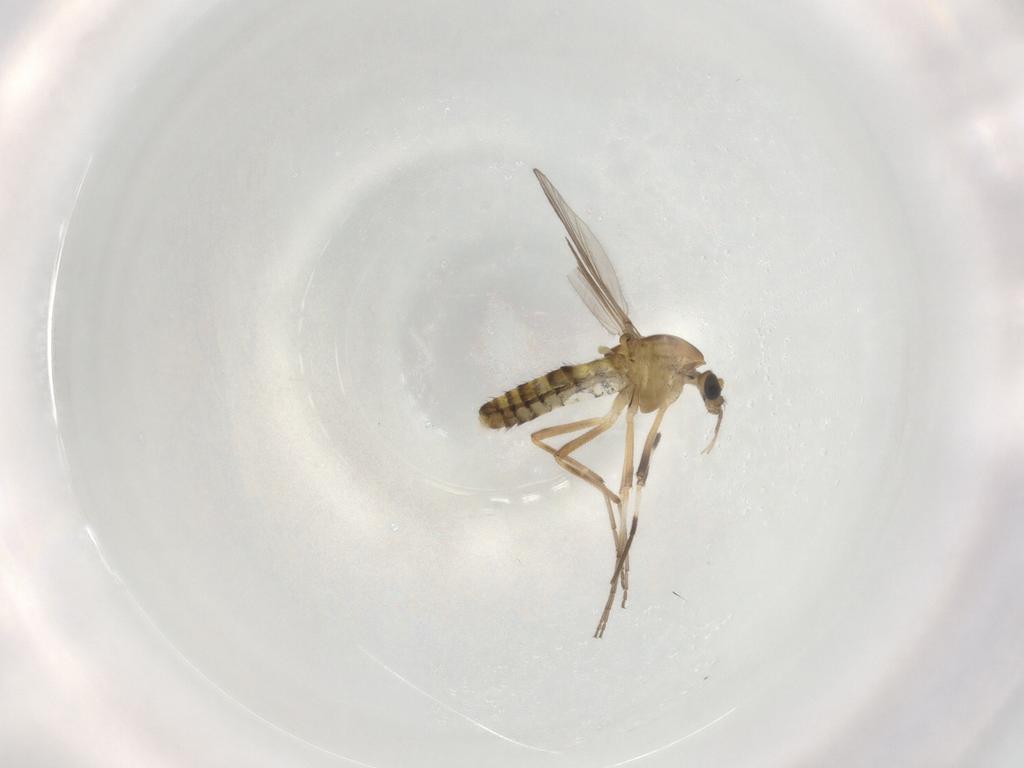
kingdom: Animalia
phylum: Arthropoda
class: Insecta
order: Diptera
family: Chironomidae
